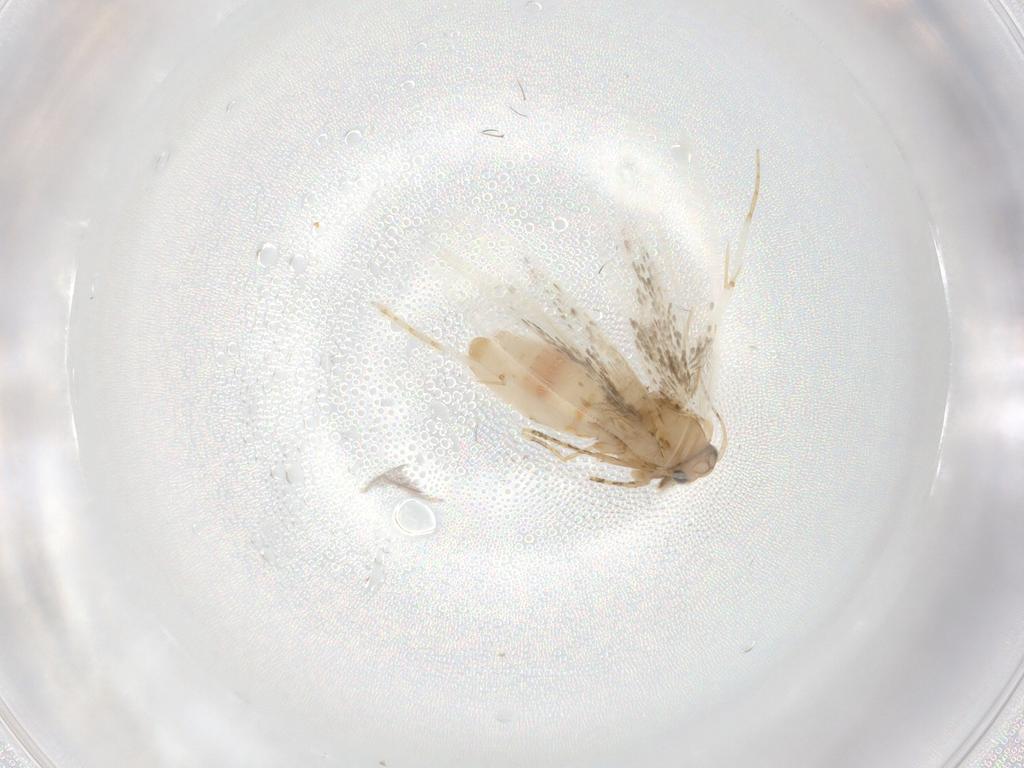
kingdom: Animalia
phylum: Arthropoda
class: Insecta
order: Lepidoptera
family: Incurvariidae
